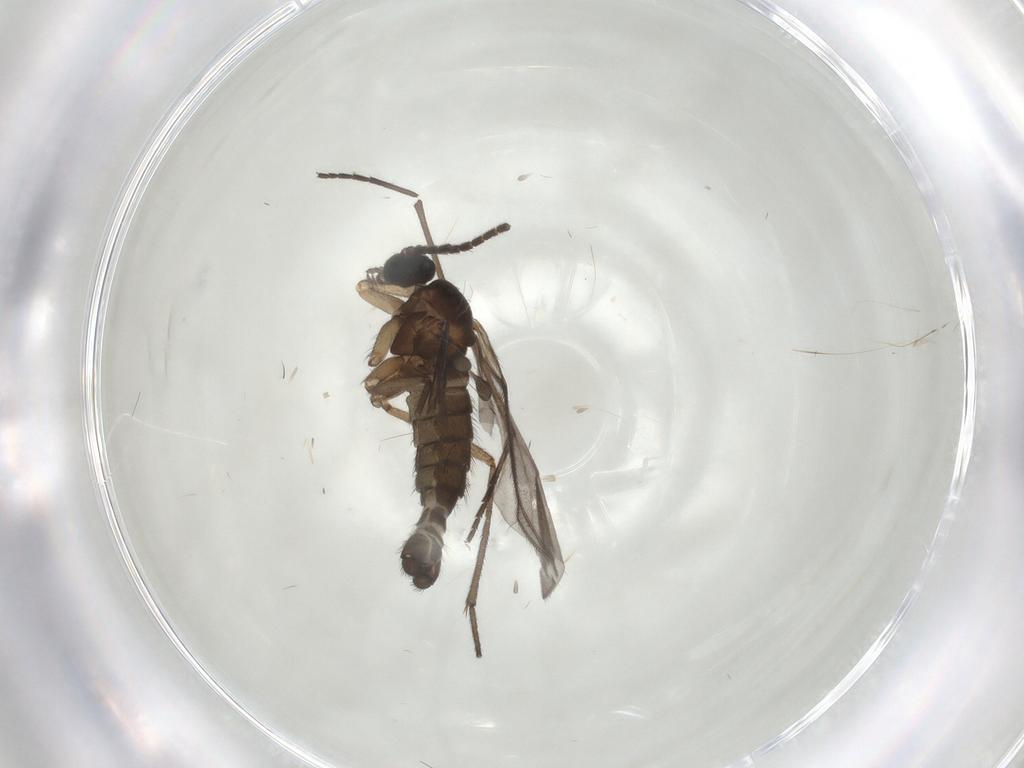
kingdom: Animalia
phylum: Arthropoda
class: Insecta
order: Diptera
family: Sciaridae
